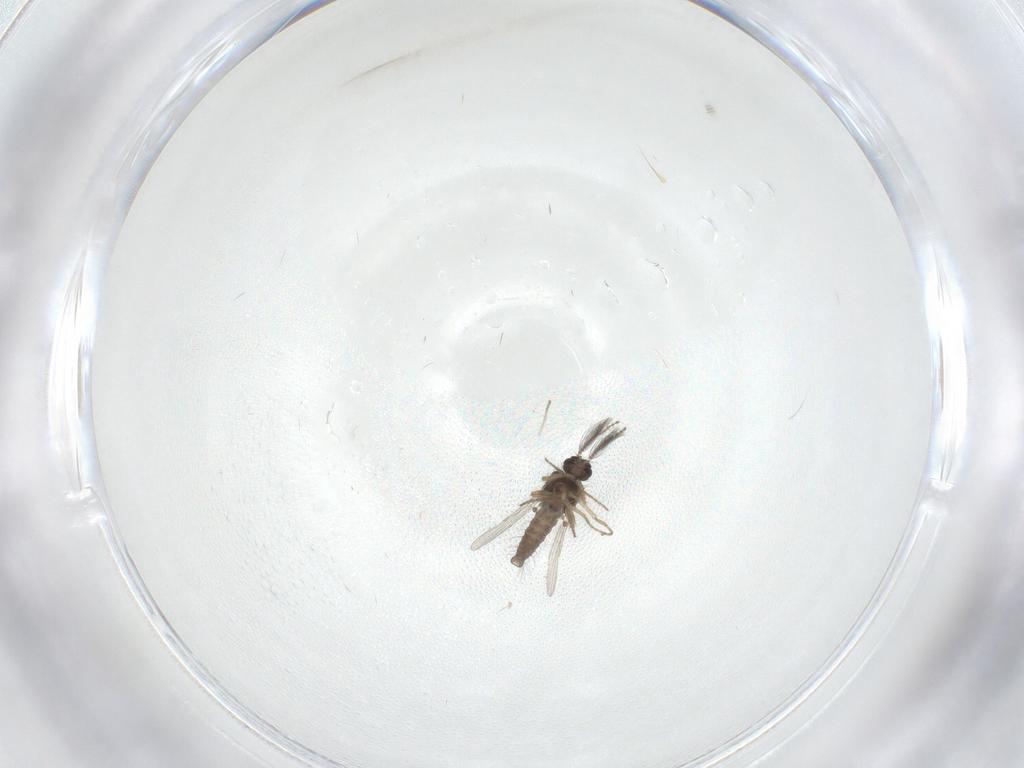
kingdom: Animalia
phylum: Arthropoda
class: Insecta
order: Diptera
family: Ceratopogonidae
